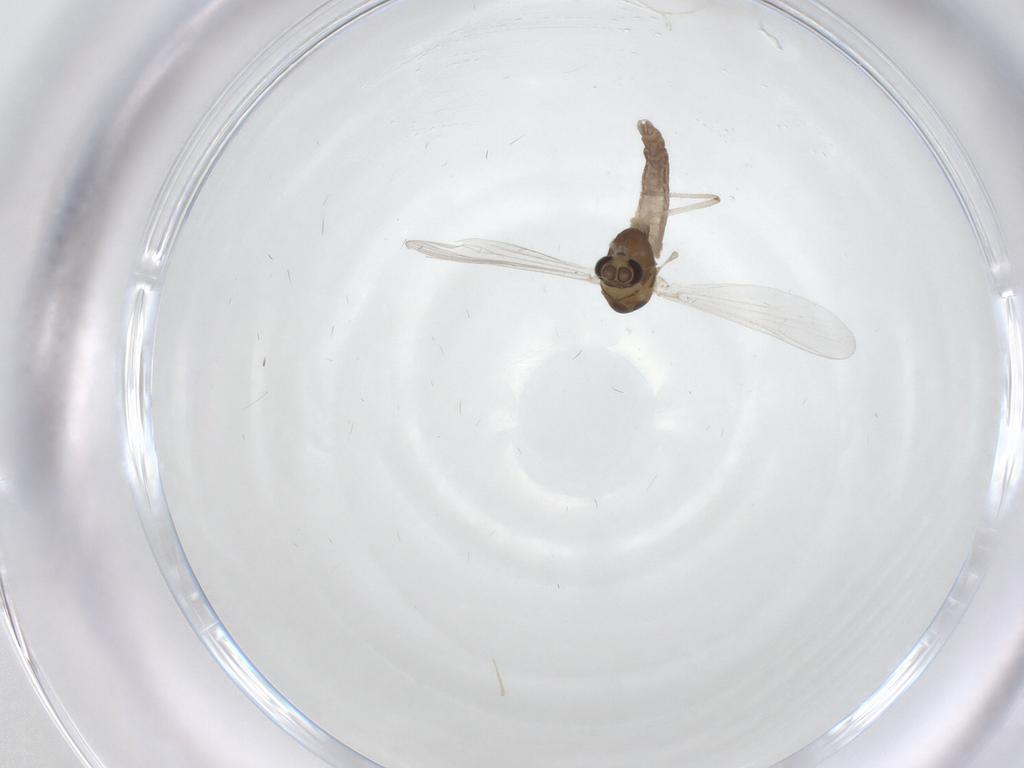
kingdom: Animalia
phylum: Arthropoda
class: Insecta
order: Diptera
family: Chironomidae
